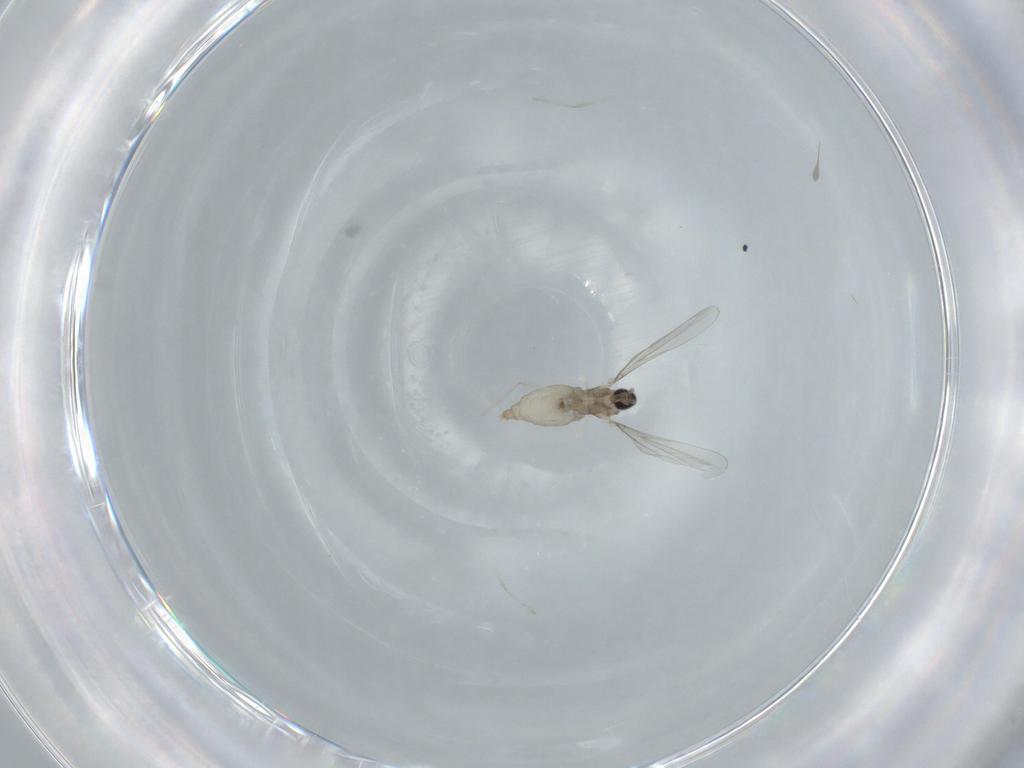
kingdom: Animalia
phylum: Arthropoda
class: Insecta
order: Diptera
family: Cecidomyiidae
